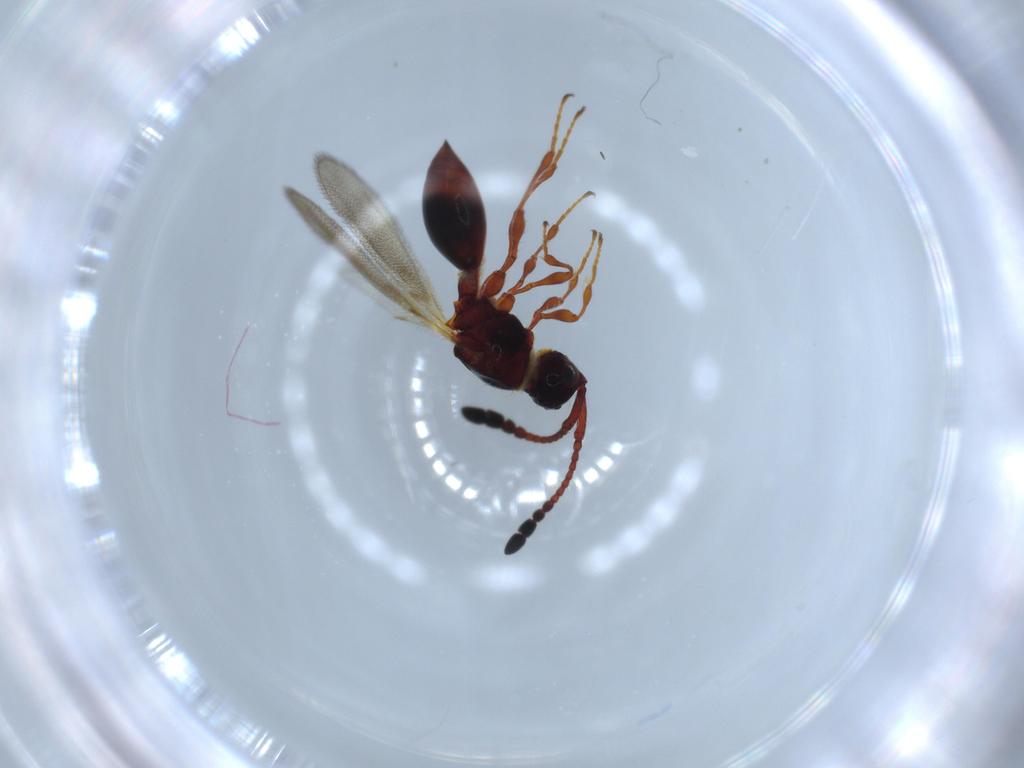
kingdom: Animalia
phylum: Arthropoda
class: Insecta
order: Hymenoptera
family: Diapriidae
